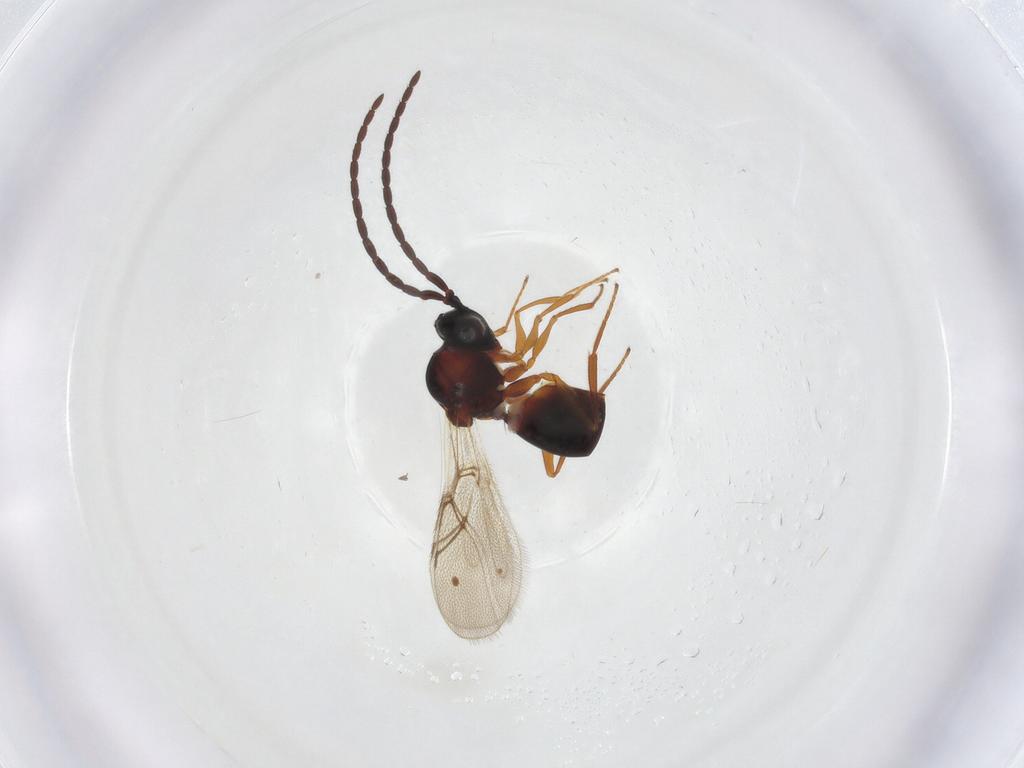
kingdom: Animalia
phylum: Arthropoda
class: Insecta
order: Hymenoptera
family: Figitidae
